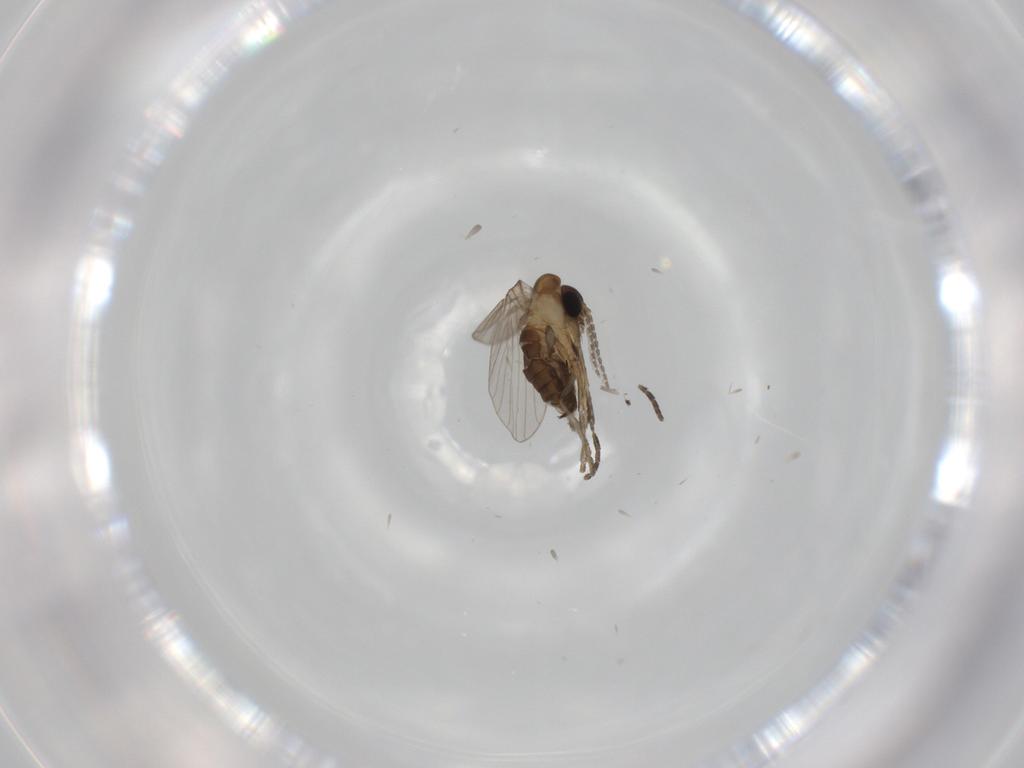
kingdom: Animalia
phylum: Arthropoda
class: Insecta
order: Diptera
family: Psychodidae
